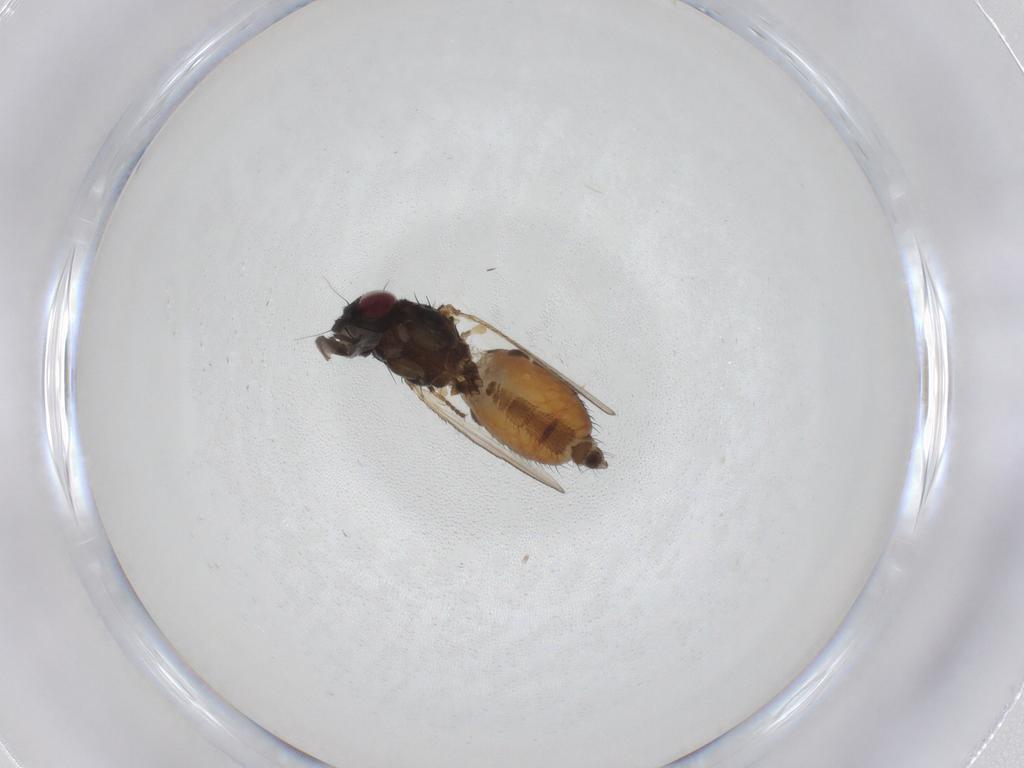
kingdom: Animalia
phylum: Arthropoda
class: Insecta
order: Diptera
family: Milichiidae
